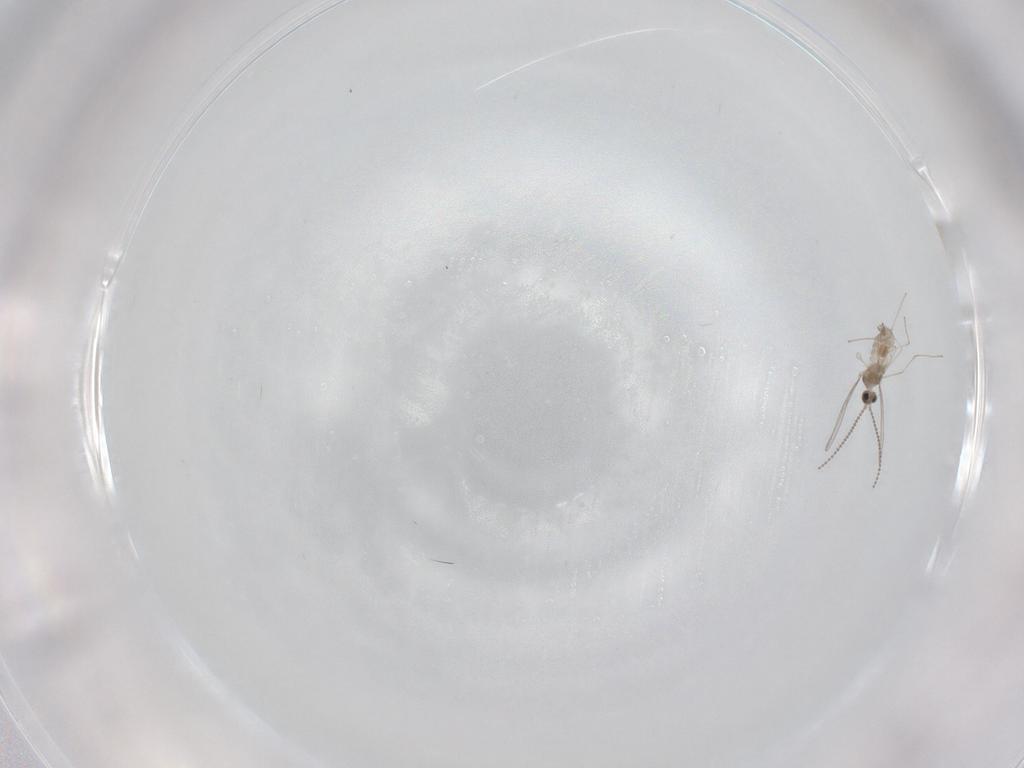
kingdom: Animalia
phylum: Arthropoda
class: Insecta
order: Diptera
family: Cecidomyiidae
